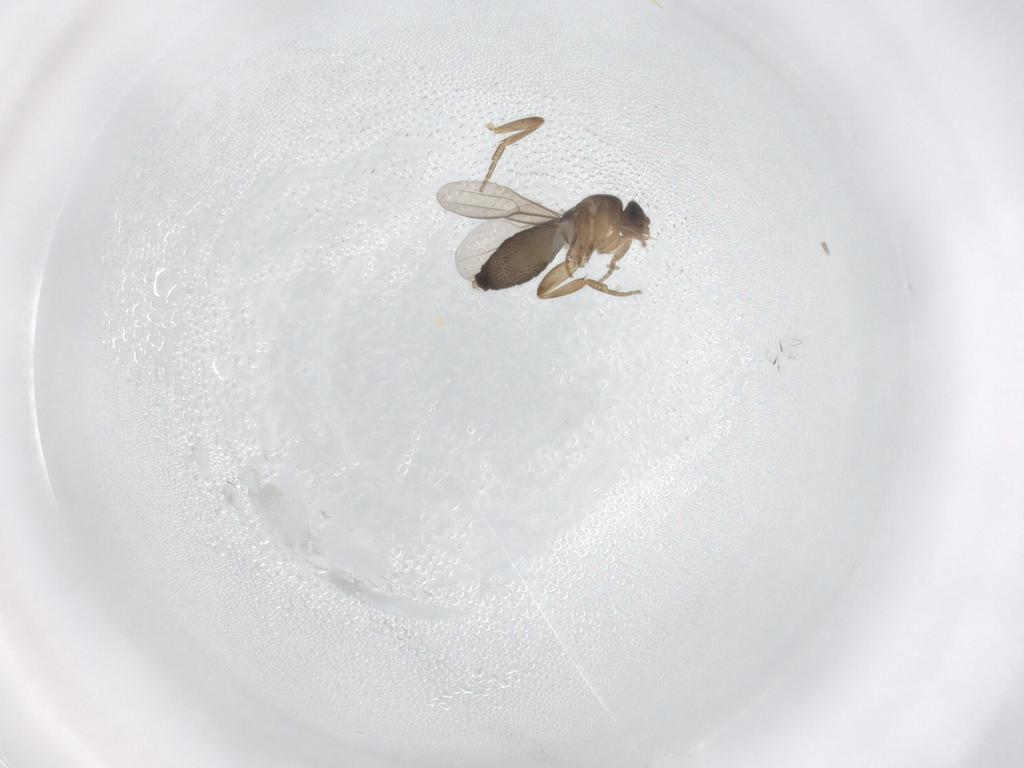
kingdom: Animalia
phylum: Arthropoda
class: Insecta
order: Diptera
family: Phoridae
